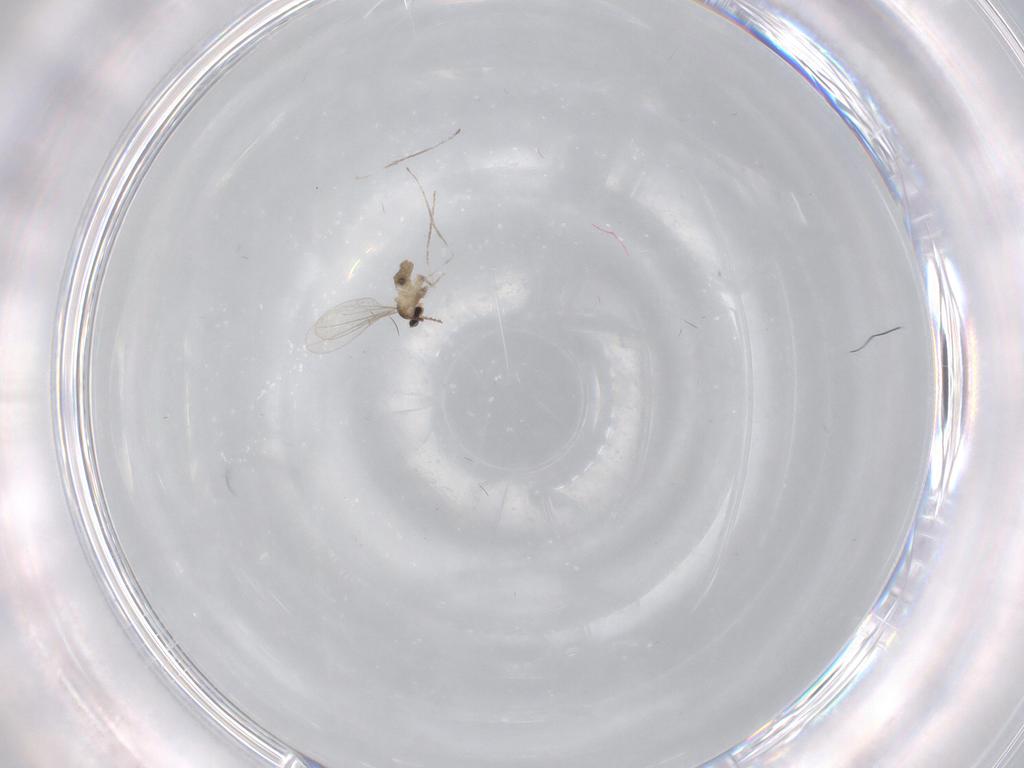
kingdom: Animalia
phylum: Arthropoda
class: Insecta
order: Diptera
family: Cecidomyiidae
